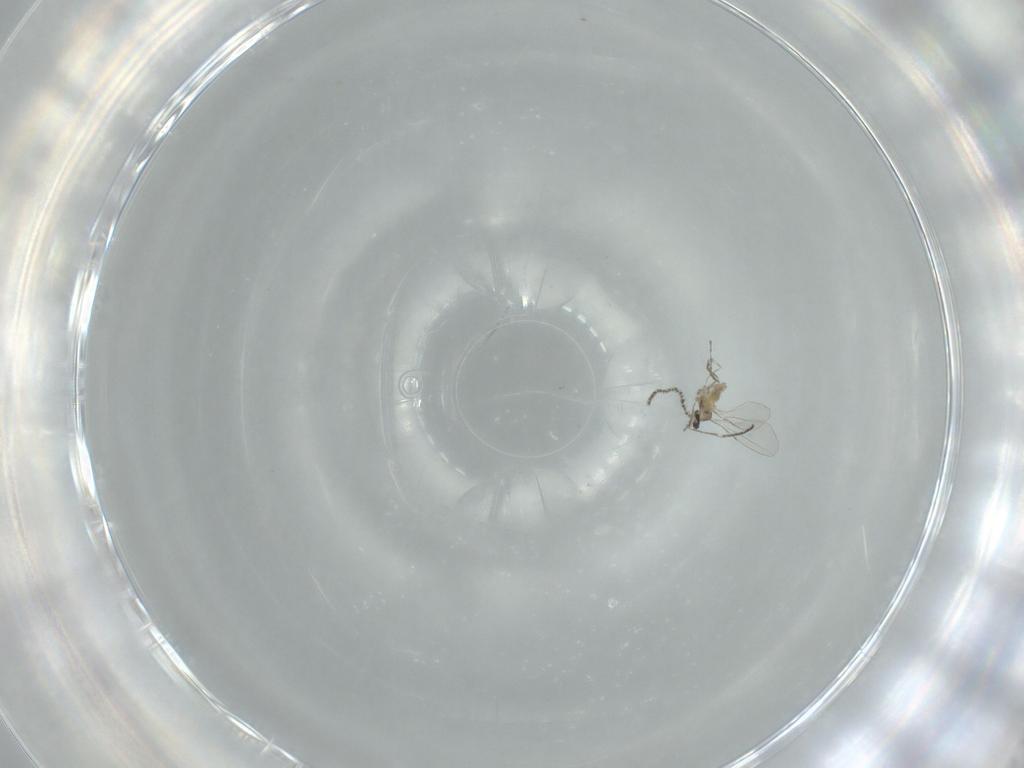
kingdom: Animalia
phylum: Arthropoda
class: Insecta
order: Diptera
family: Cecidomyiidae
